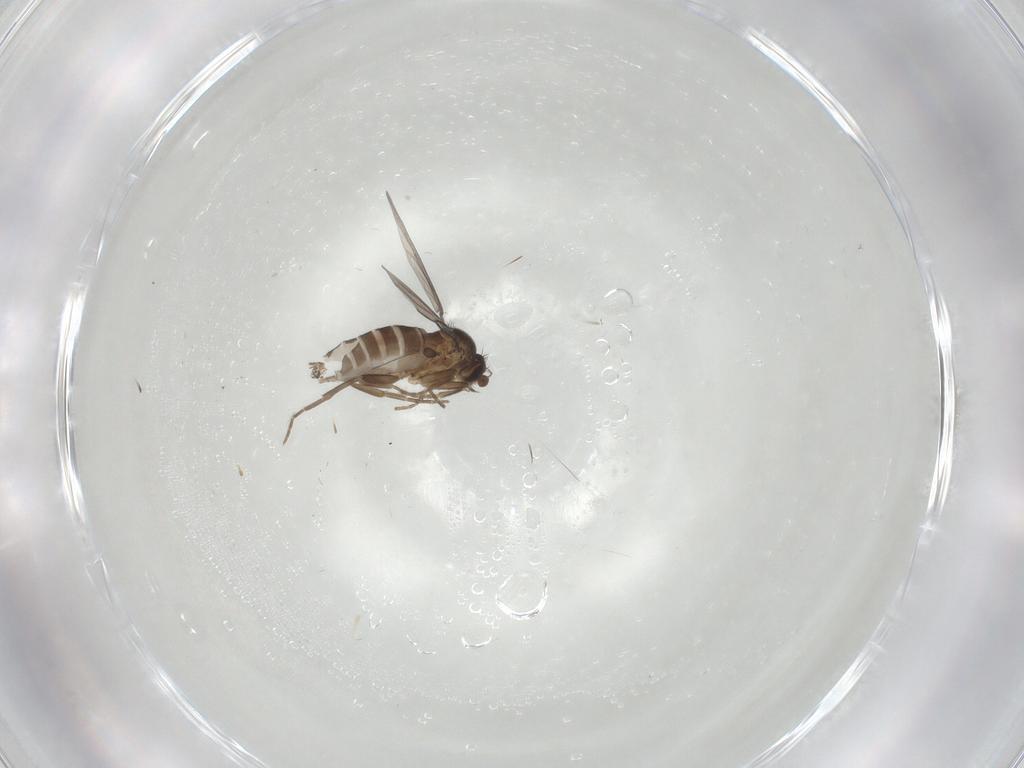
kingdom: Animalia
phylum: Arthropoda
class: Insecta
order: Diptera
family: Phoridae
